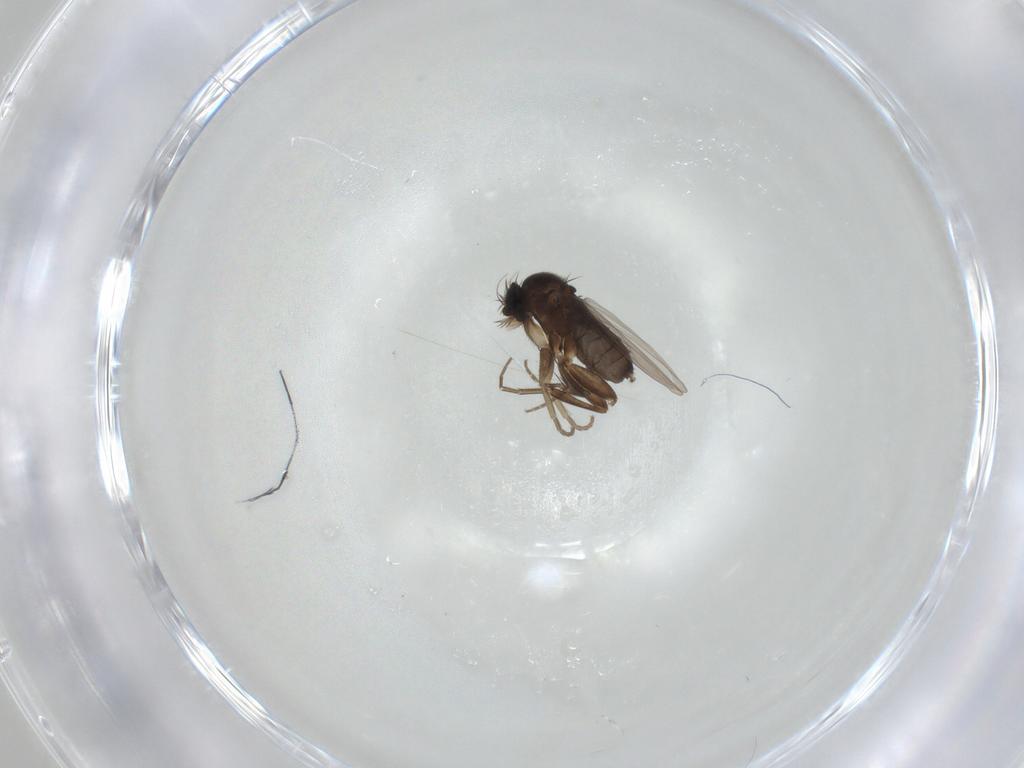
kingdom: Animalia
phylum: Arthropoda
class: Insecta
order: Diptera
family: Phoridae
